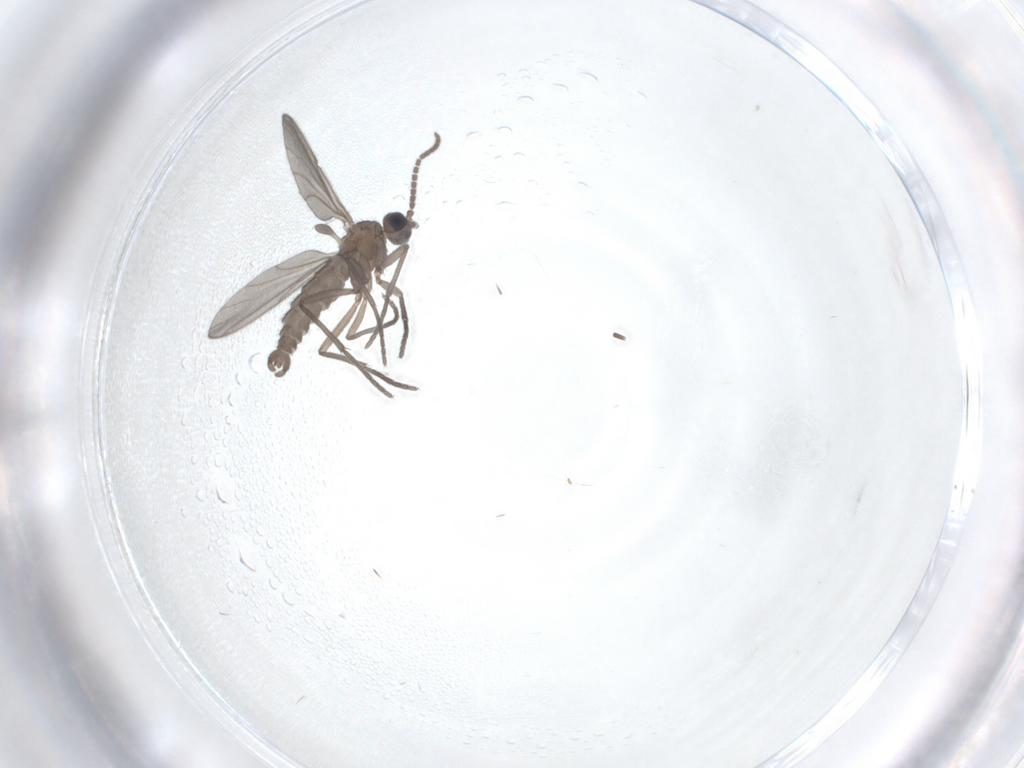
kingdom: Animalia
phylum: Arthropoda
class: Insecta
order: Diptera
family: Sciaridae
